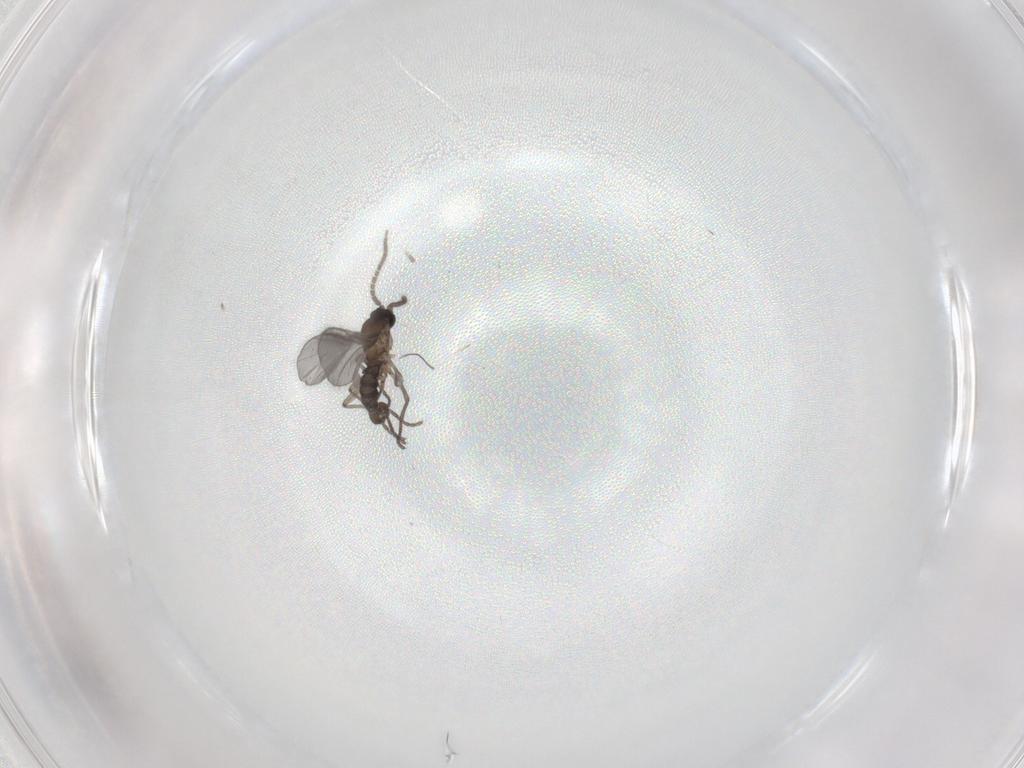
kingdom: Animalia
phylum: Arthropoda
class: Insecta
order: Diptera
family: Sciaridae
